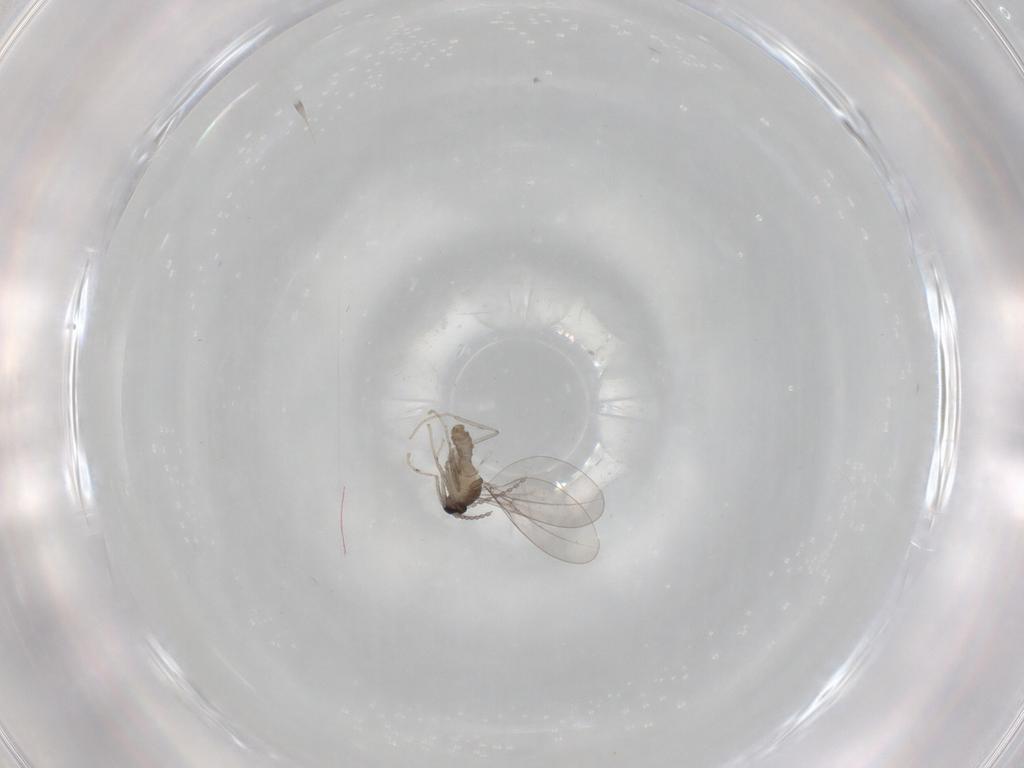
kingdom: Animalia
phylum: Arthropoda
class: Insecta
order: Diptera
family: Cecidomyiidae
